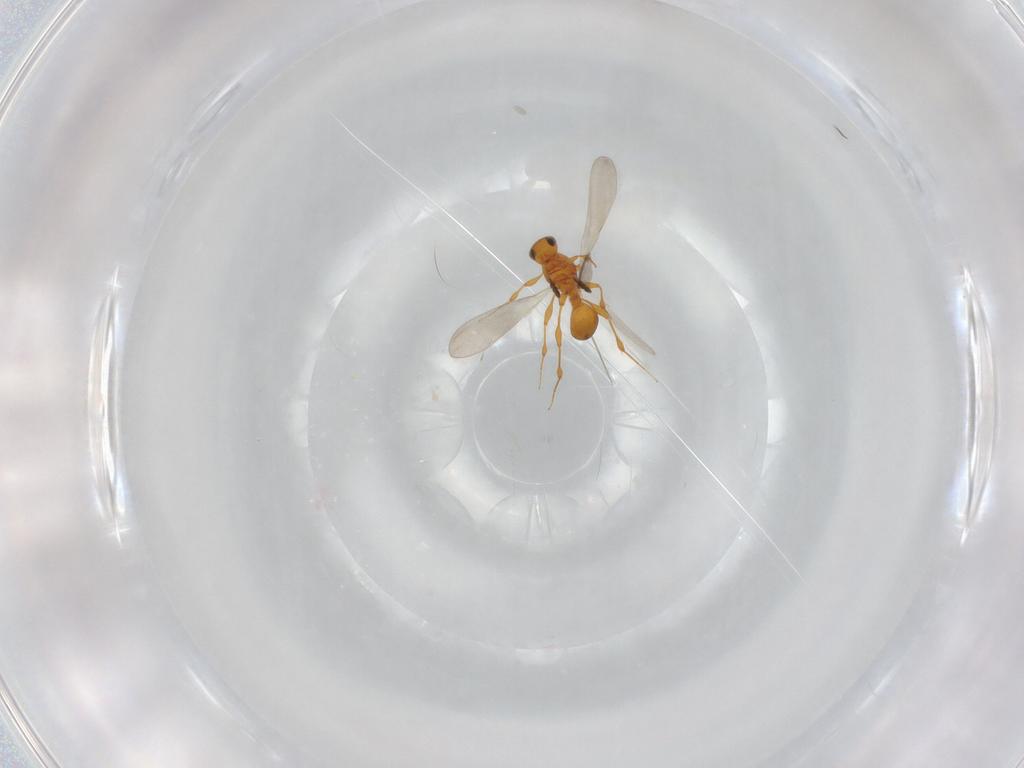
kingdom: Animalia
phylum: Arthropoda
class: Insecta
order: Hymenoptera
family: Platygastridae
